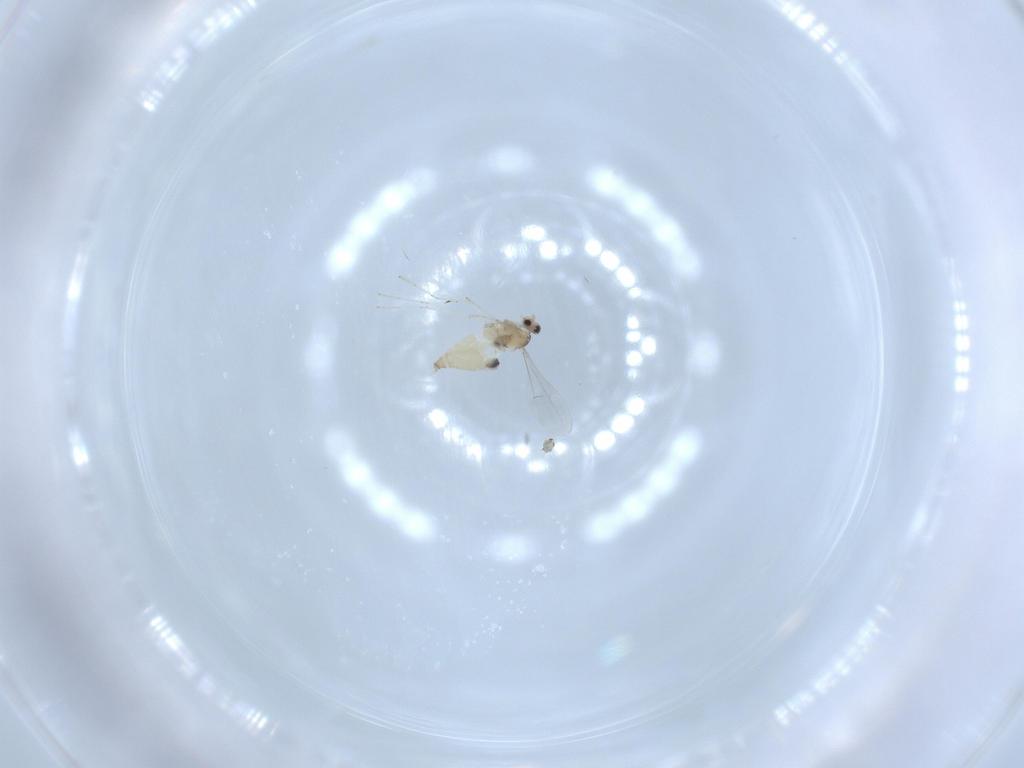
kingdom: Animalia
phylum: Arthropoda
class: Insecta
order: Diptera
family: Cecidomyiidae
